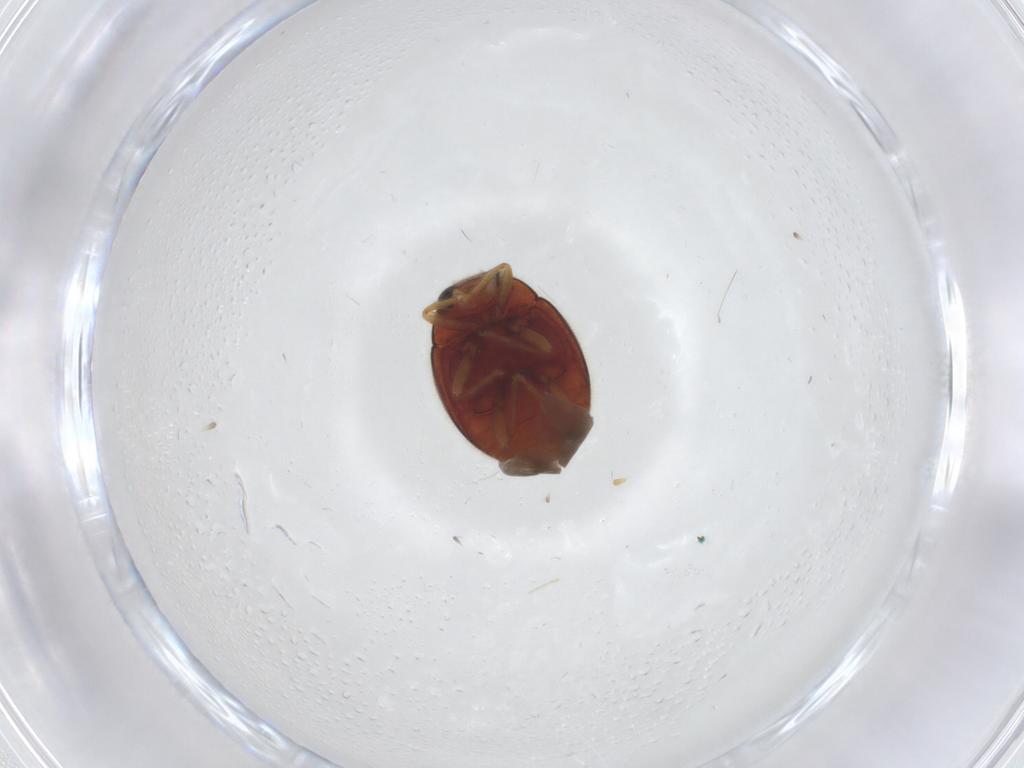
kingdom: Animalia
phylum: Arthropoda
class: Insecta
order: Coleoptera
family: Coccinellidae
